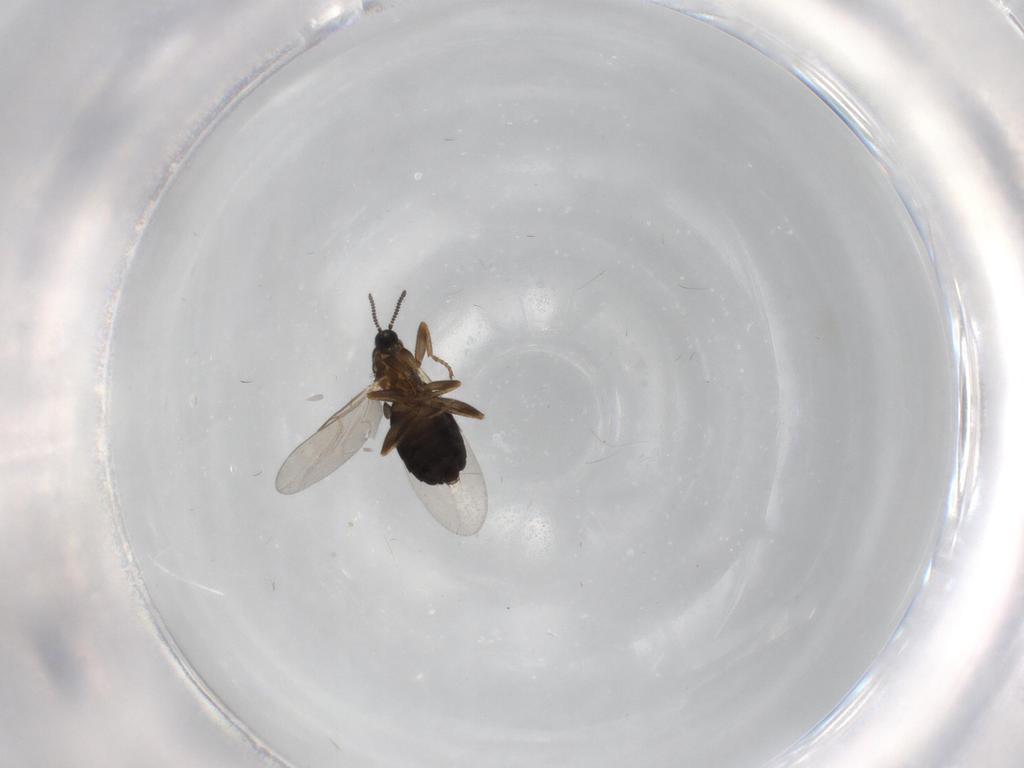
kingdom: Animalia
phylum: Arthropoda
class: Insecta
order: Diptera
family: Scatopsidae
